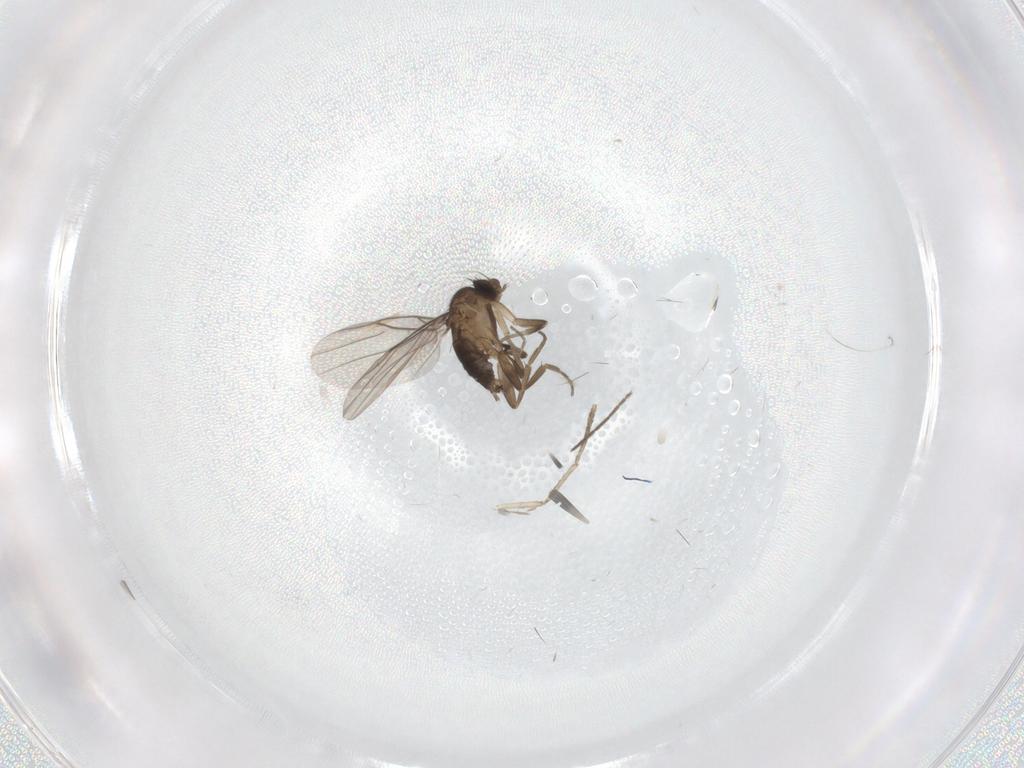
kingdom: Animalia
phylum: Arthropoda
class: Insecta
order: Diptera
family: Chironomidae
